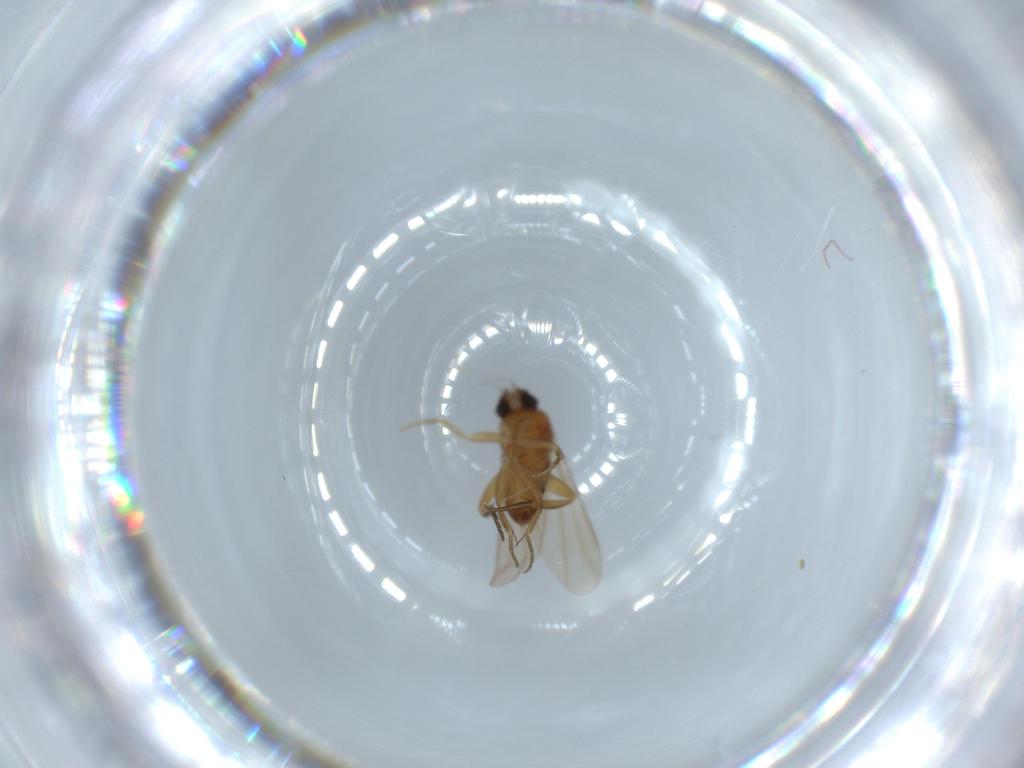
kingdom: Animalia
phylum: Arthropoda
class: Insecta
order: Diptera
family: Phoridae
